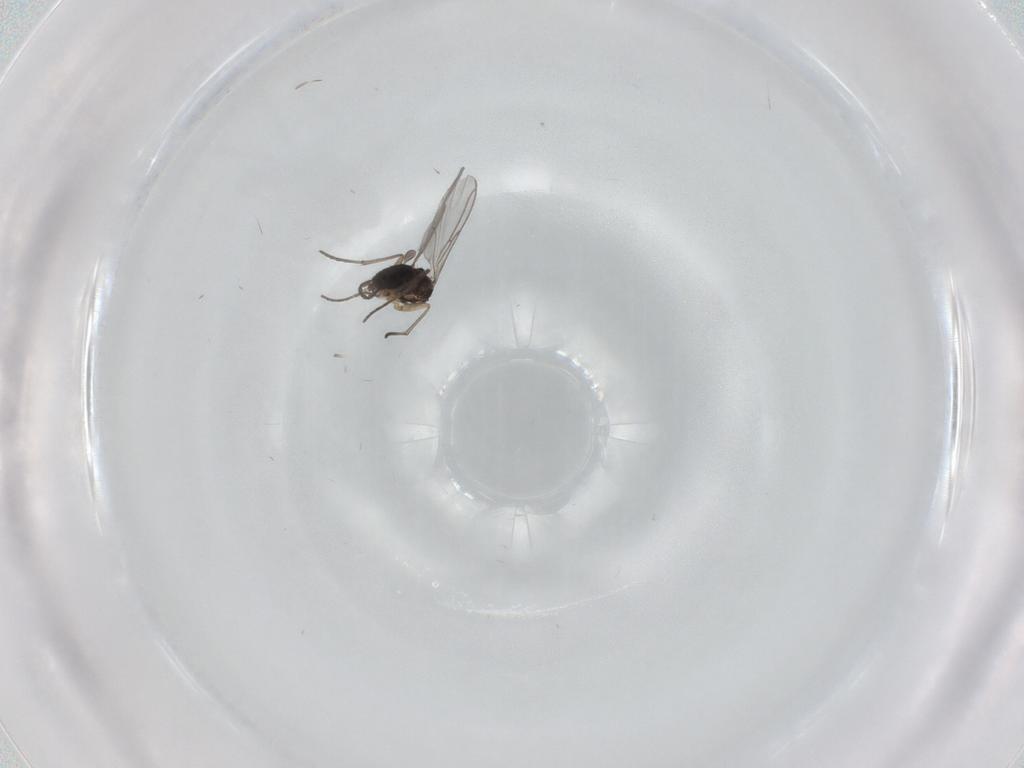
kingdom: Animalia
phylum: Arthropoda
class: Insecta
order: Diptera
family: Sciaridae
